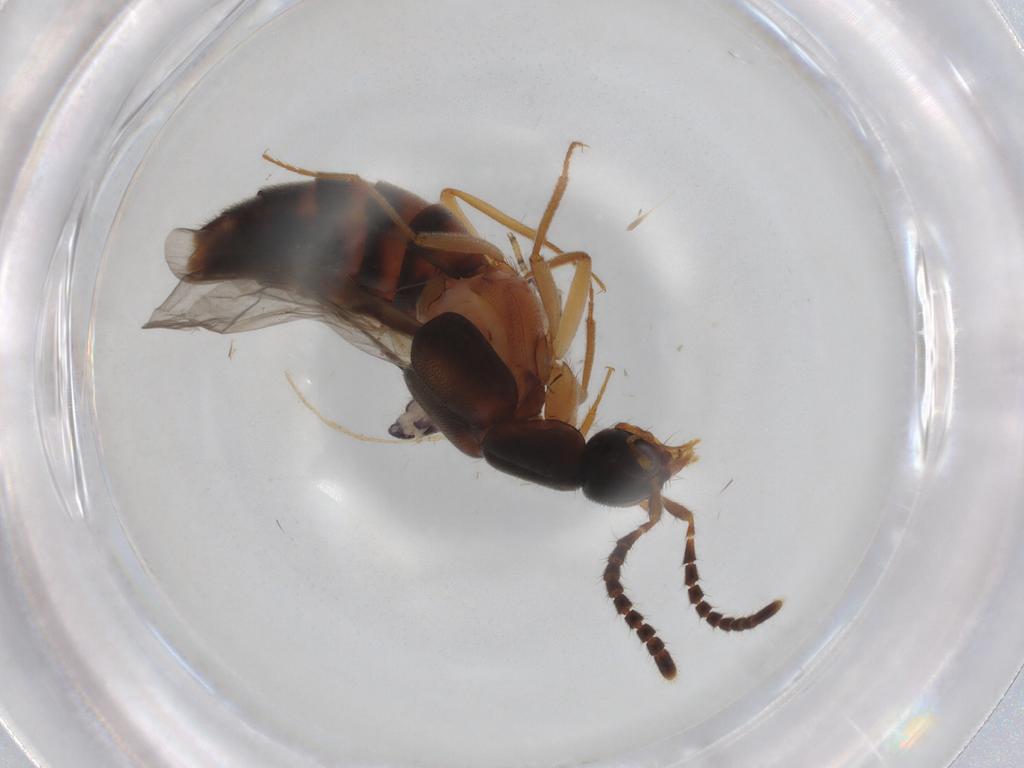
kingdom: Animalia
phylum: Arthropoda
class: Insecta
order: Coleoptera
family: Staphylinidae
